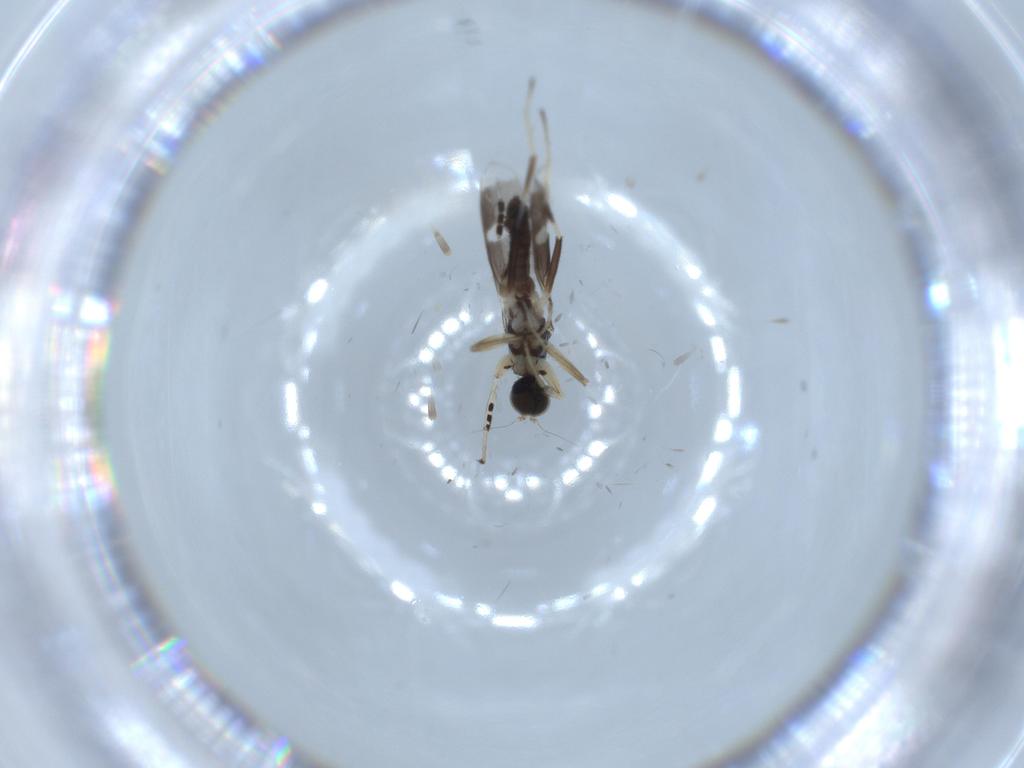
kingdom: Animalia
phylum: Arthropoda
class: Insecta
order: Diptera
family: Hybotidae
